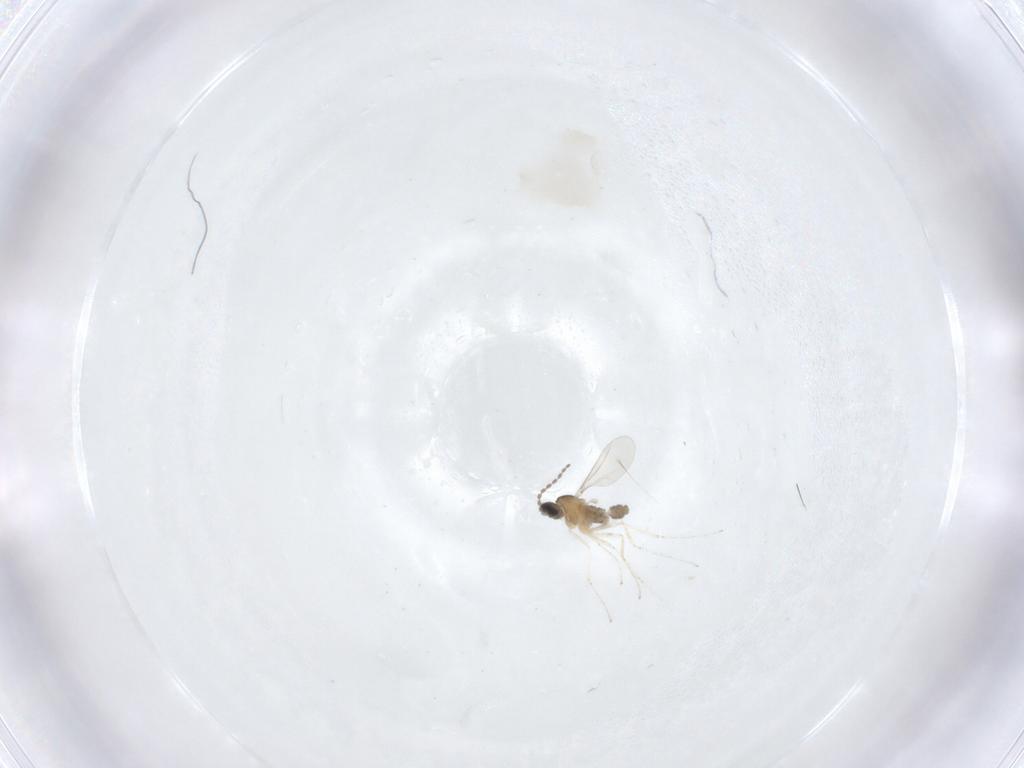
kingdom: Animalia
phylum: Arthropoda
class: Insecta
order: Diptera
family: Cecidomyiidae
